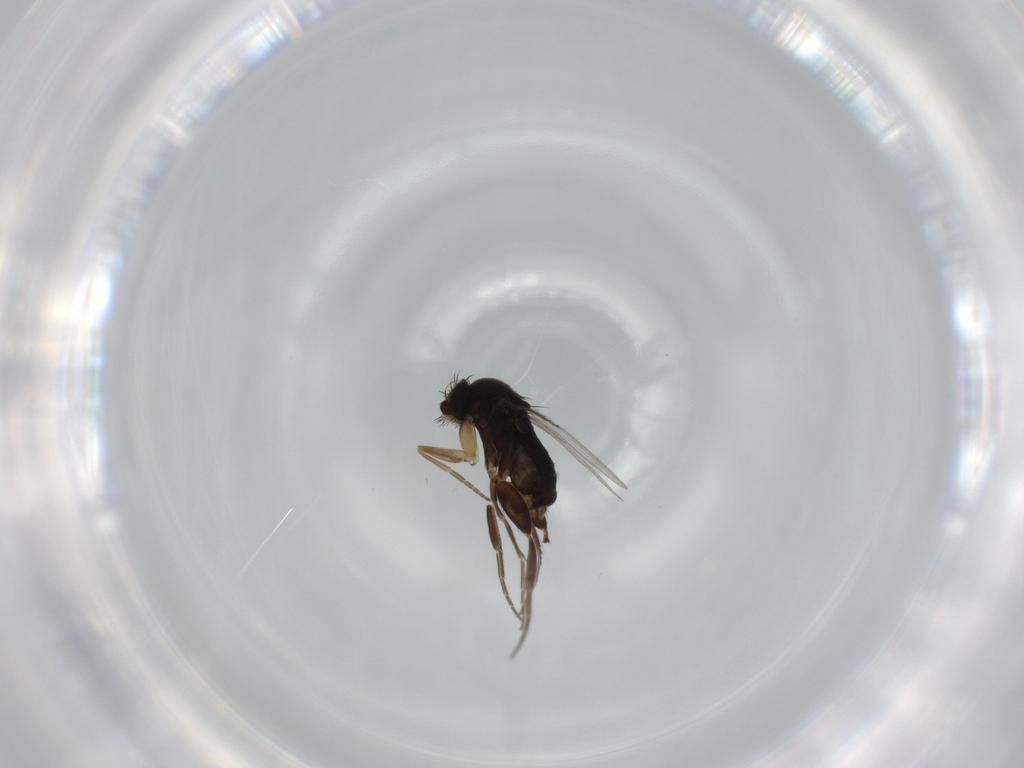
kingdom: Animalia
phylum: Arthropoda
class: Insecta
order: Diptera
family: Phoridae
